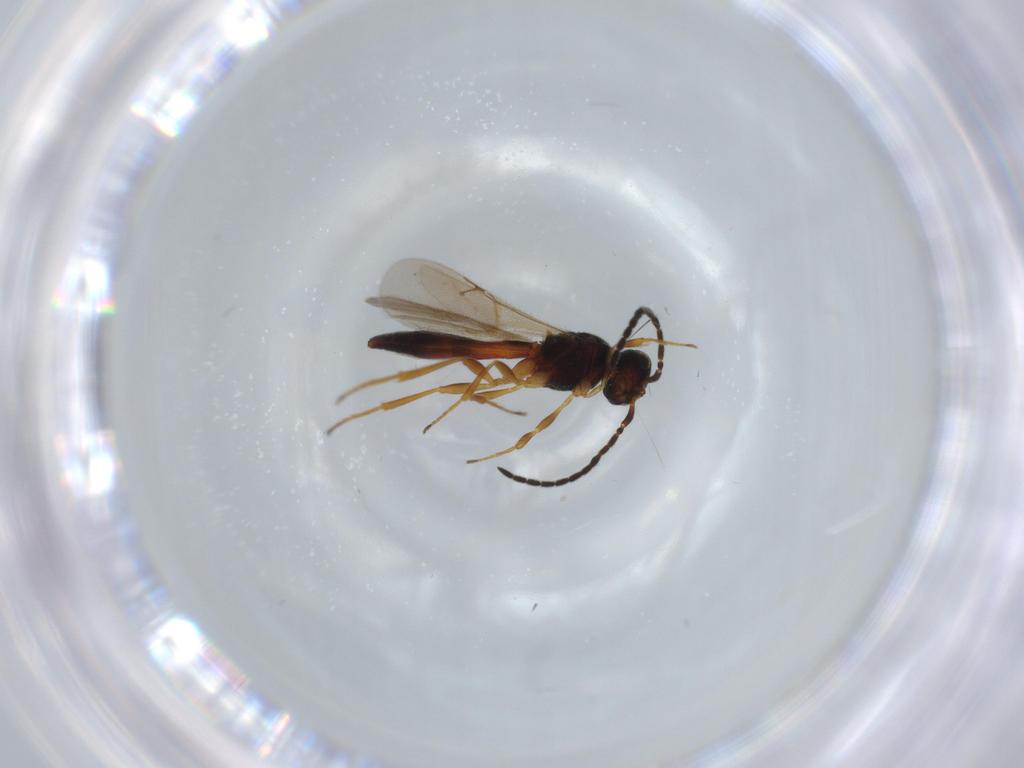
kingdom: Animalia
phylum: Arthropoda
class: Insecta
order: Hymenoptera
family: Scelionidae
